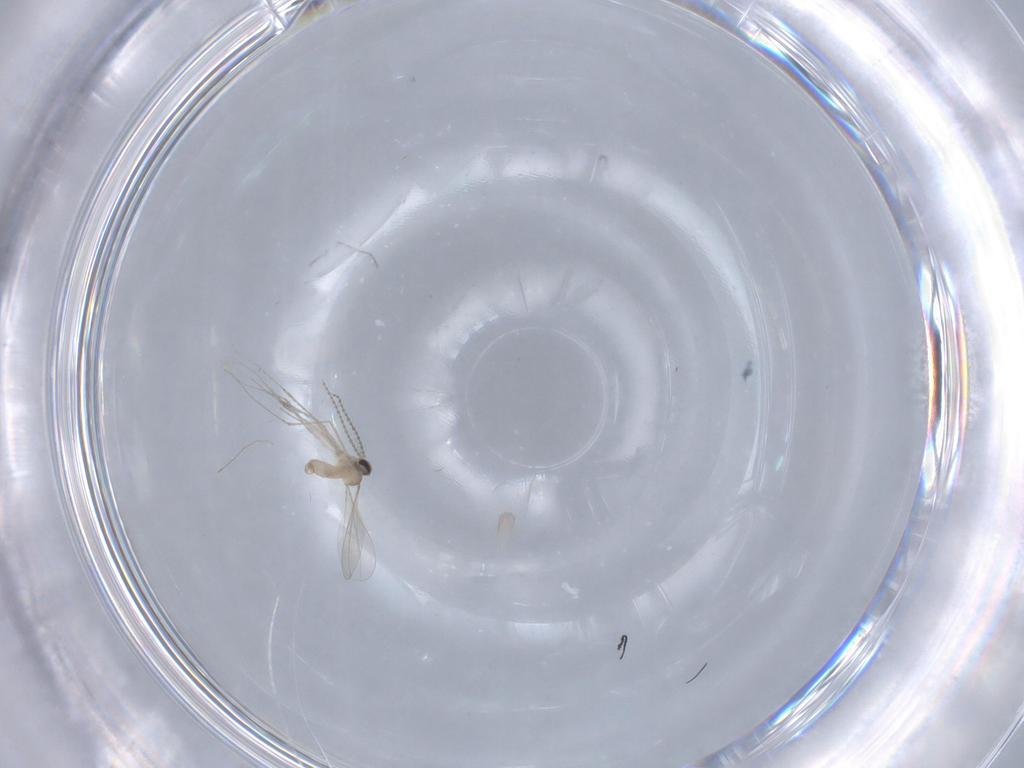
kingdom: Animalia
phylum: Arthropoda
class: Insecta
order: Diptera
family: Cecidomyiidae
